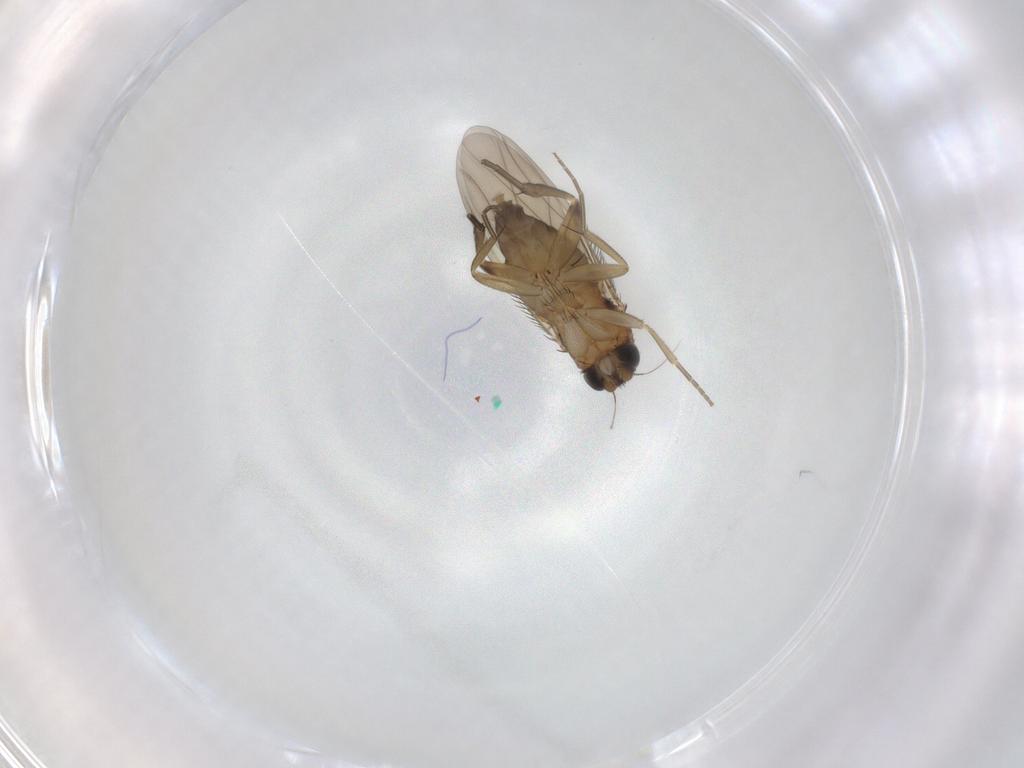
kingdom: Animalia
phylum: Arthropoda
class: Insecta
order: Diptera
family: Phoridae
